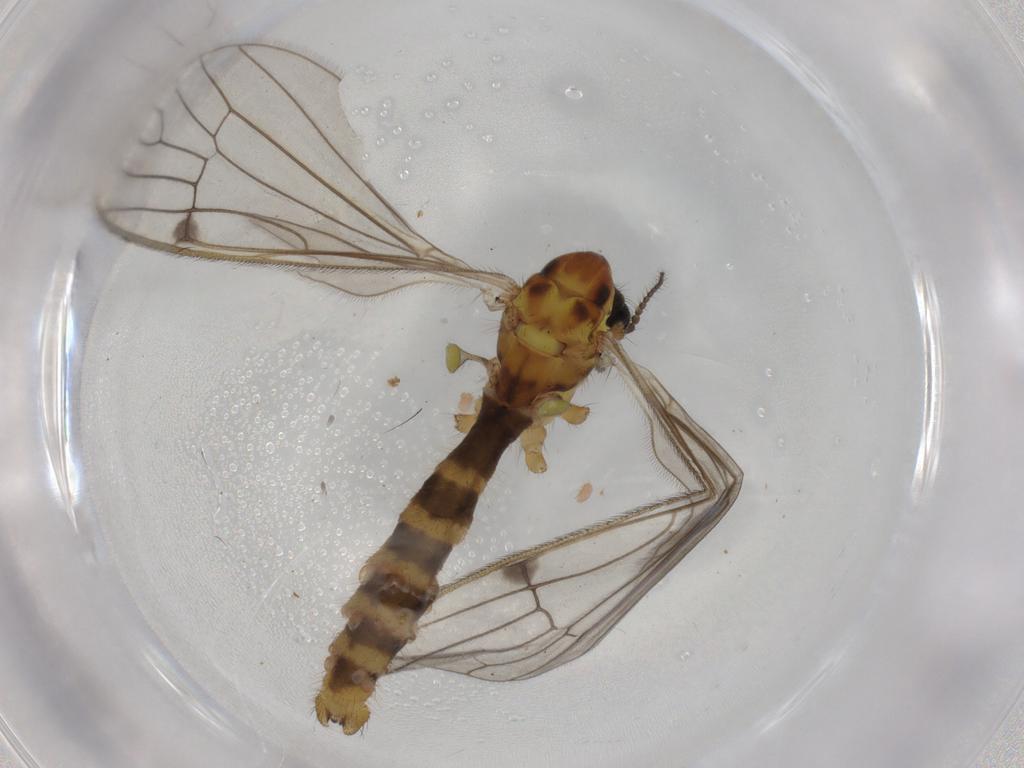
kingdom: Animalia
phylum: Arthropoda
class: Insecta
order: Diptera
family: Limoniidae
